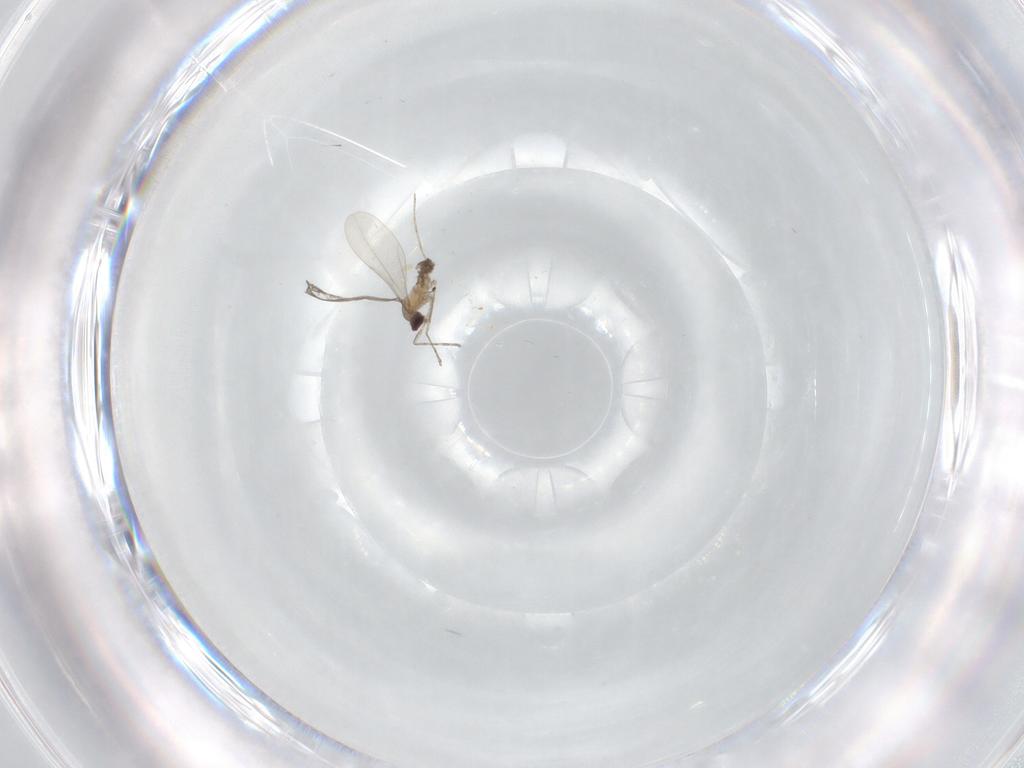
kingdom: Animalia
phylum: Arthropoda
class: Insecta
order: Diptera
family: Cecidomyiidae
